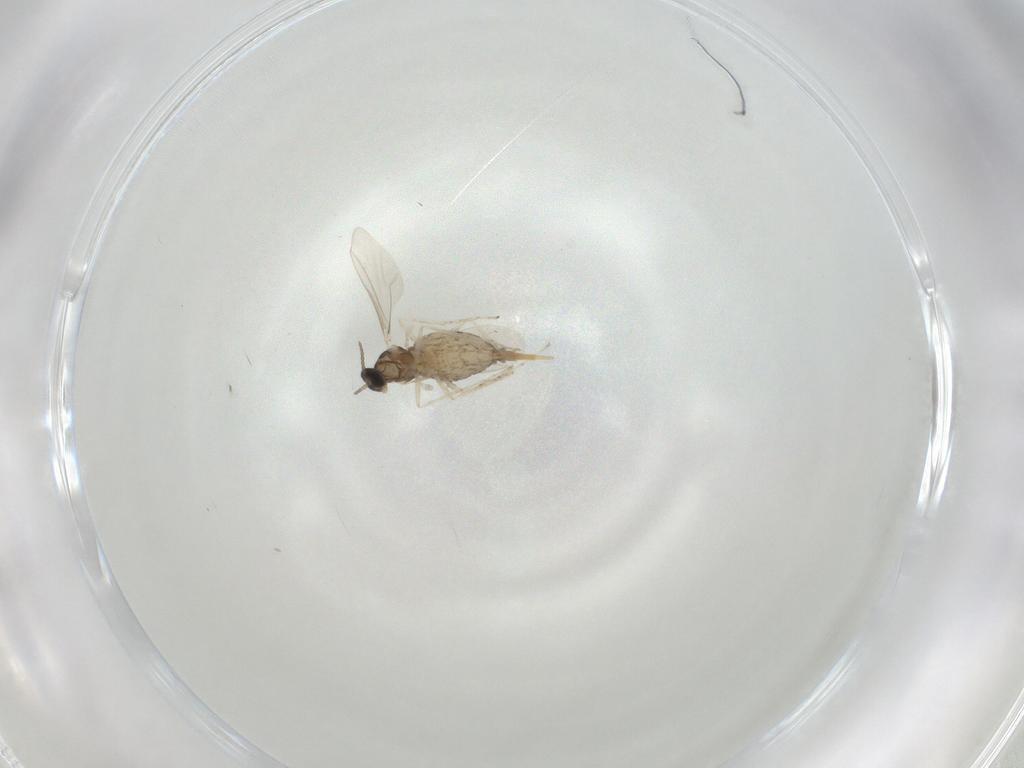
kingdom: Animalia
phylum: Arthropoda
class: Insecta
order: Diptera
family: Cecidomyiidae
